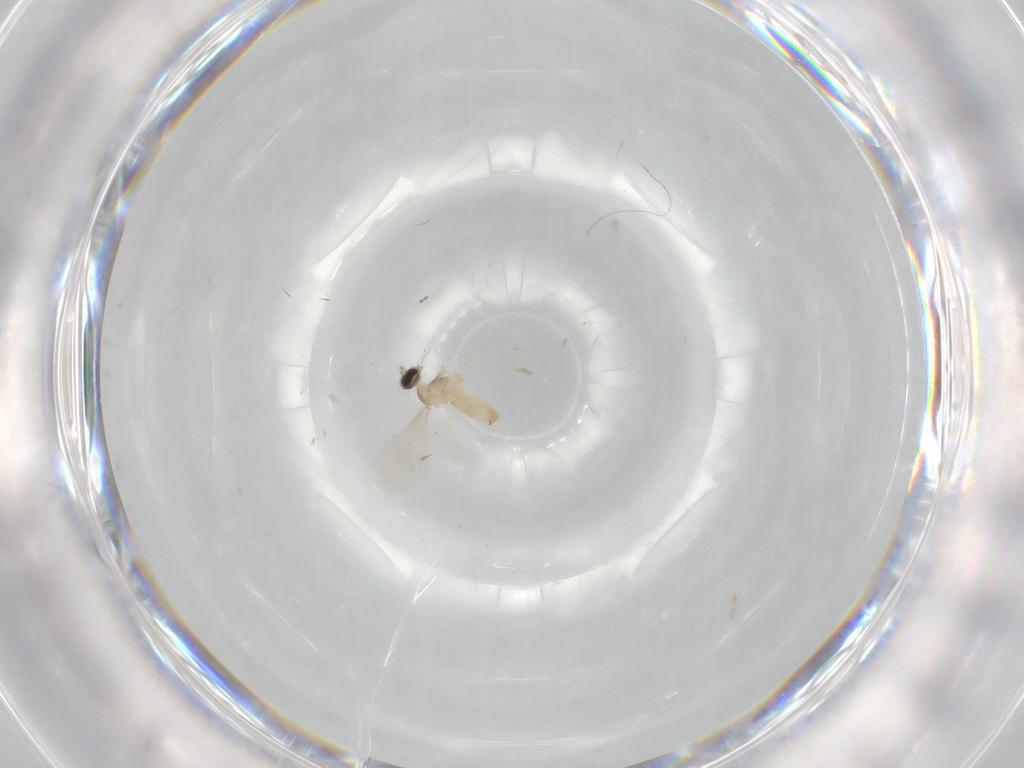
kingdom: Animalia
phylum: Arthropoda
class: Insecta
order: Diptera
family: Cecidomyiidae
